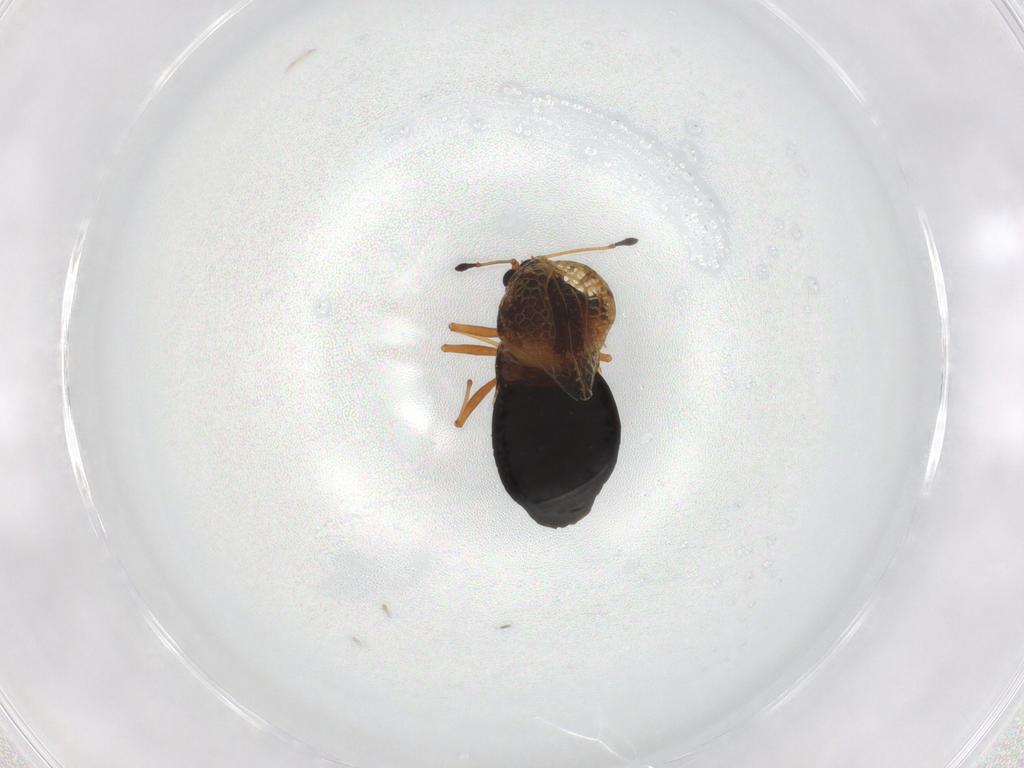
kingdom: Animalia
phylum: Arthropoda
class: Insecta
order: Hemiptera
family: Tingidae
